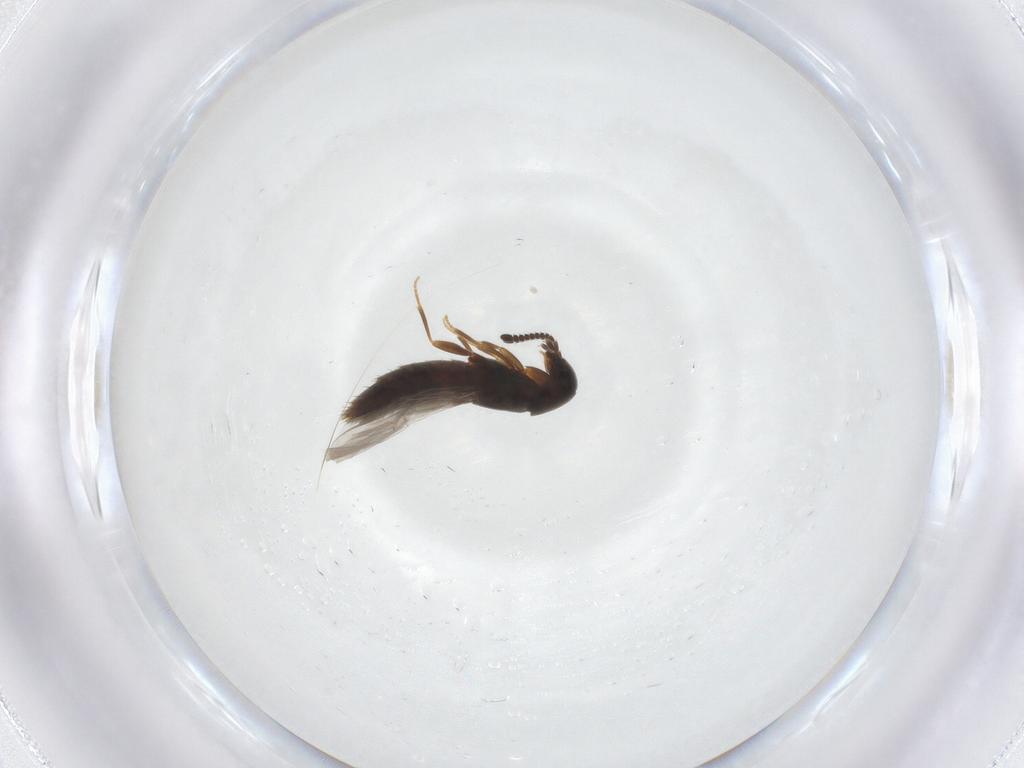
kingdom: Animalia
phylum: Arthropoda
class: Insecta
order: Coleoptera
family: Staphylinidae
